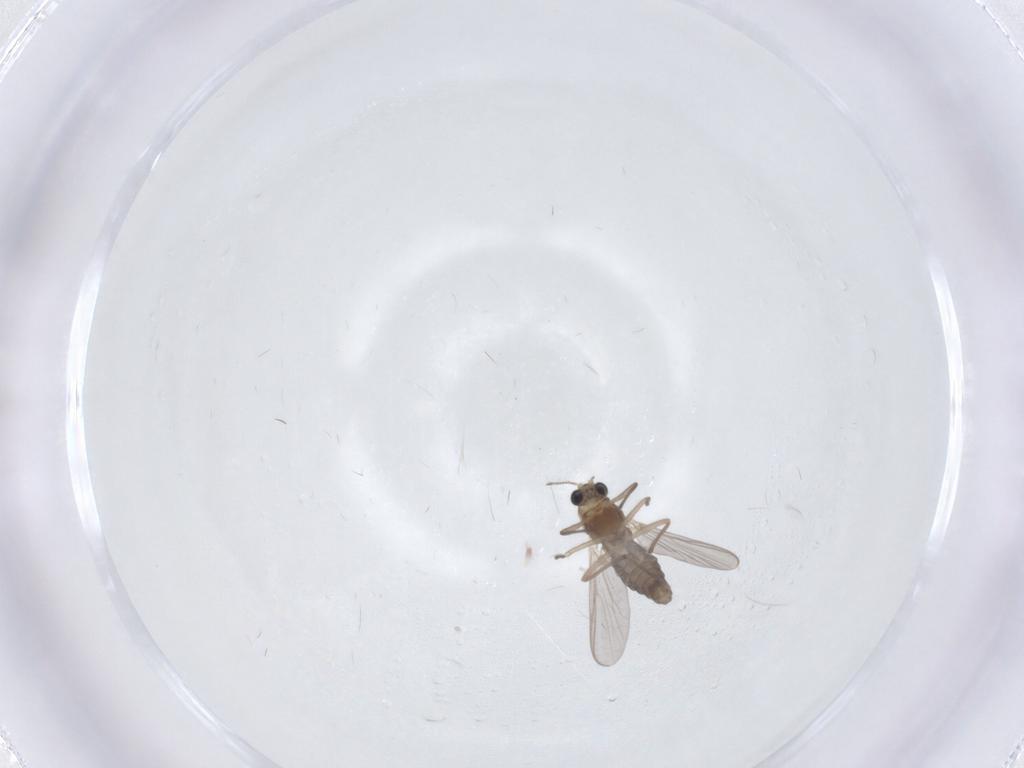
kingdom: Animalia
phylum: Arthropoda
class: Insecta
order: Diptera
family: Chironomidae
